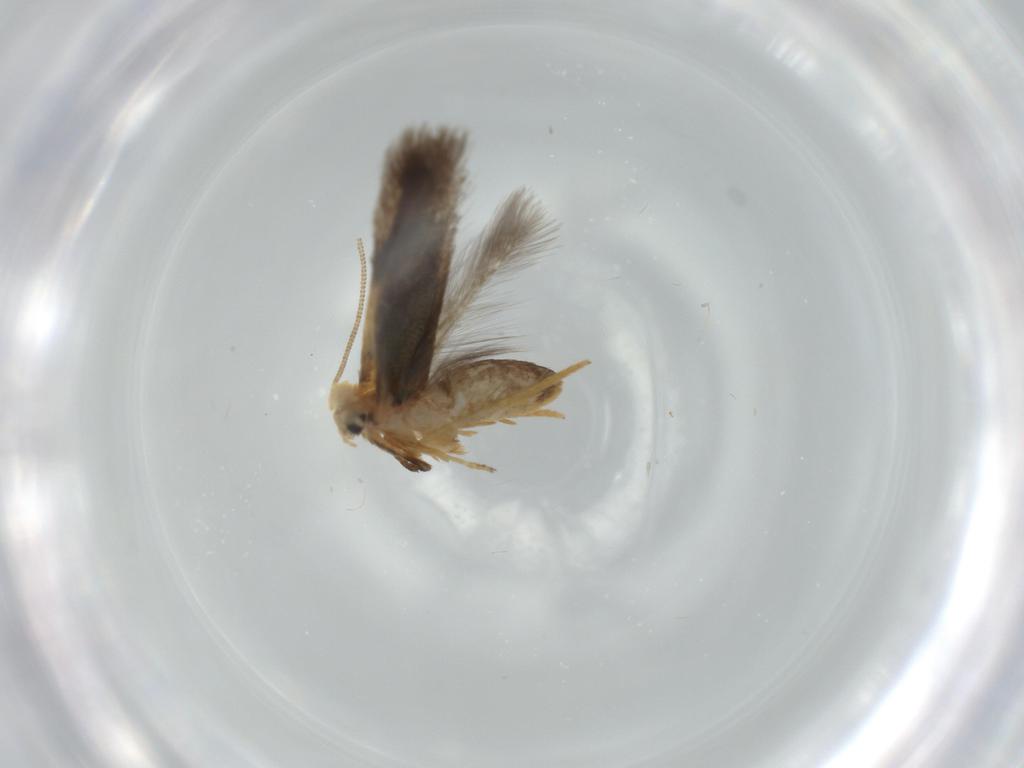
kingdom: Animalia
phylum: Arthropoda
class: Insecta
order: Lepidoptera
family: Nepticulidae
